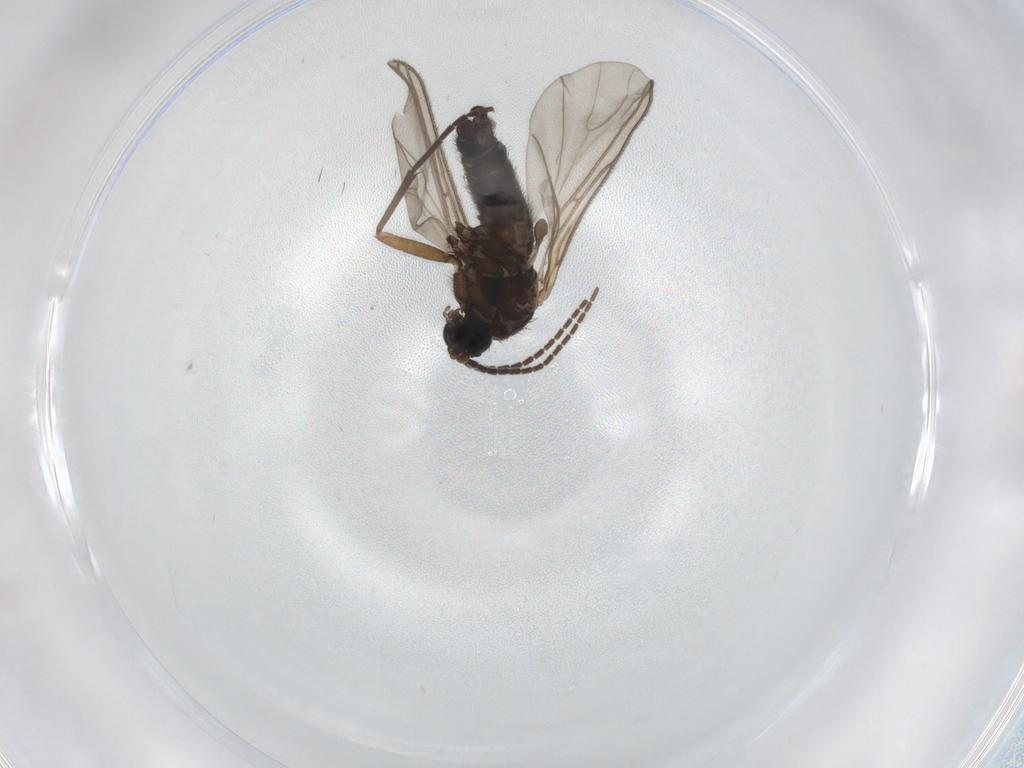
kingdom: Animalia
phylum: Arthropoda
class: Insecta
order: Diptera
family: Sciaridae
